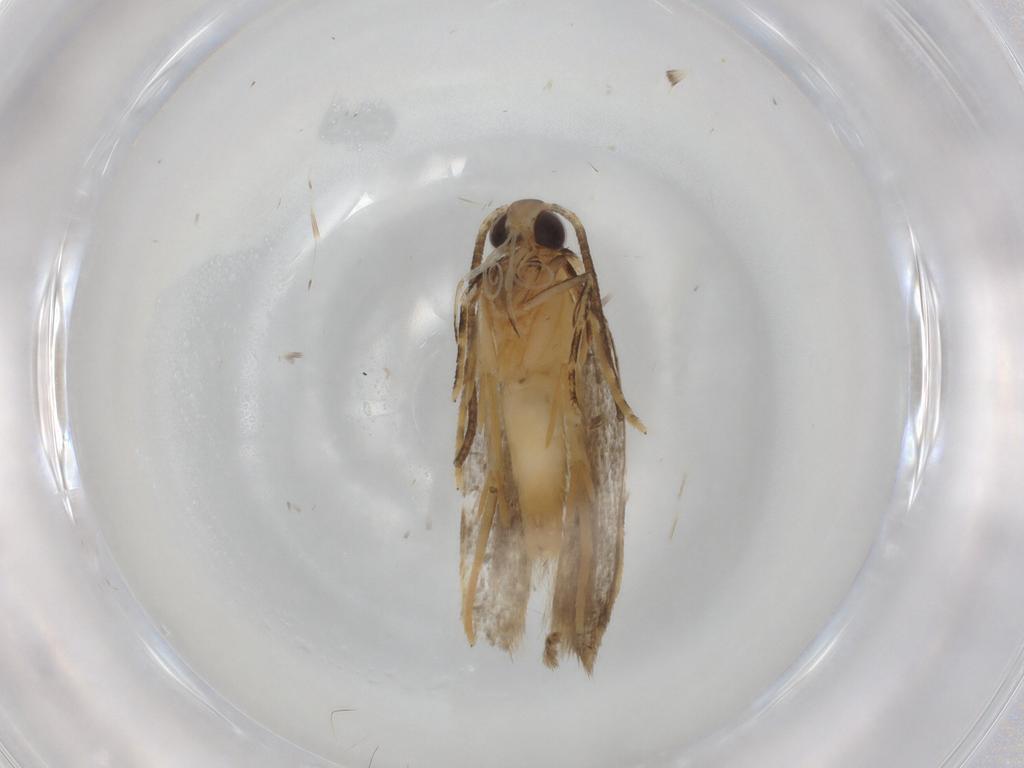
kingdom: Animalia
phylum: Arthropoda
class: Insecta
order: Lepidoptera
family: Autostichidae
